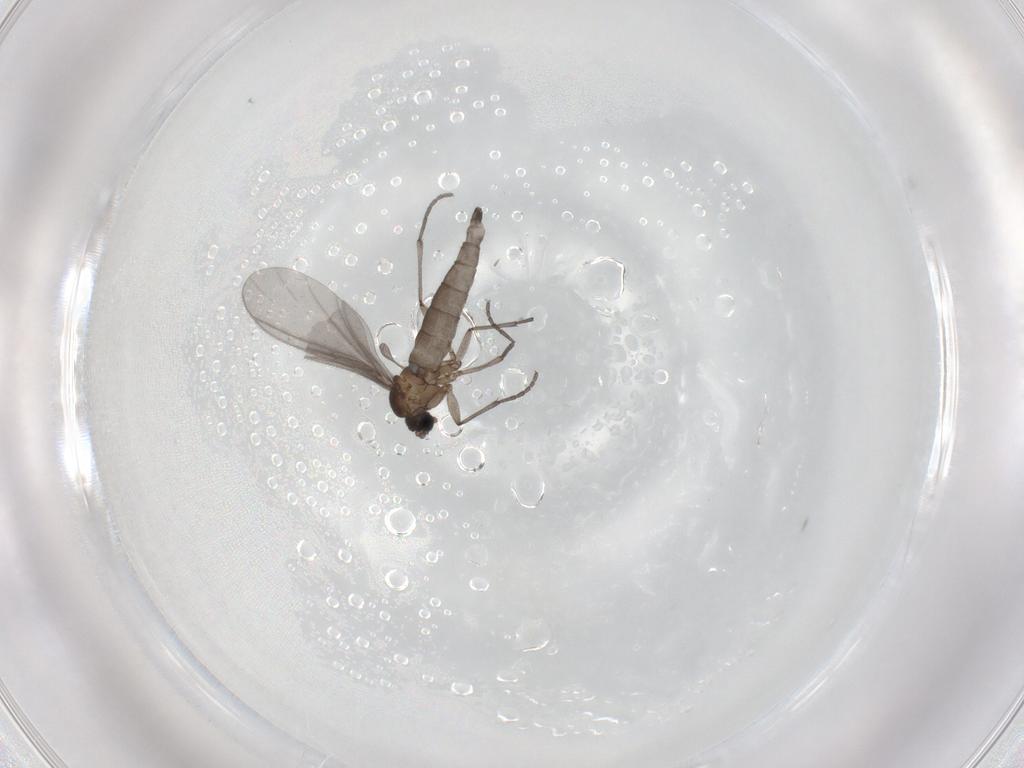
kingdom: Animalia
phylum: Arthropoda
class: Insecta
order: Diptera
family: Sciaridae
